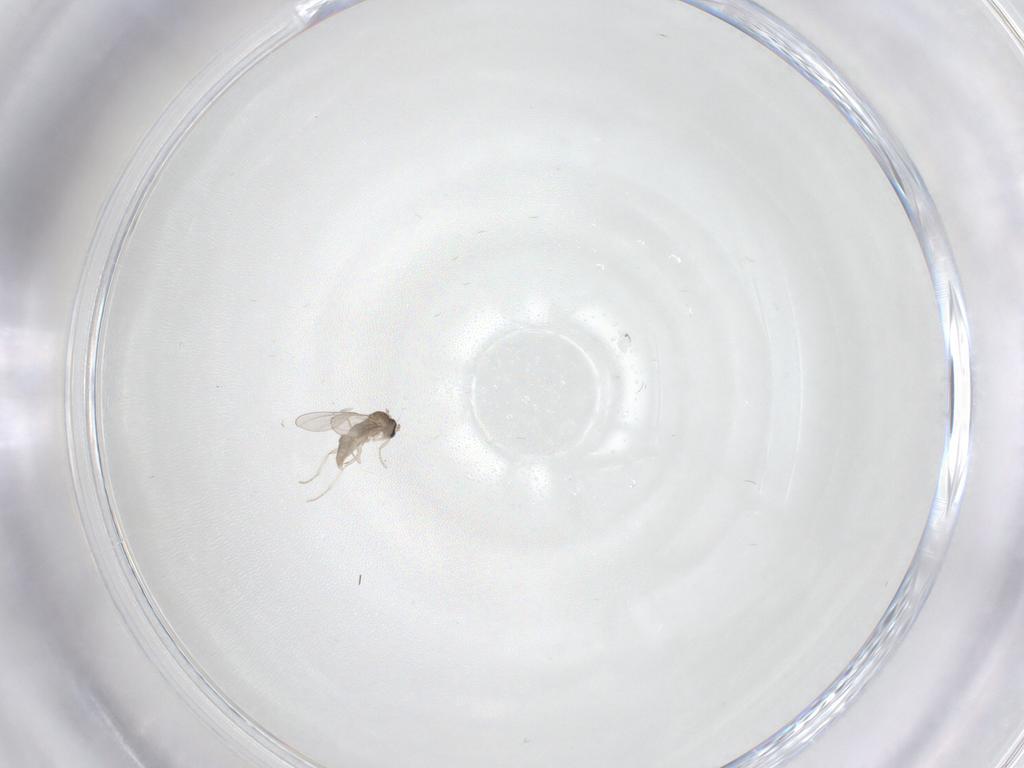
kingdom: Animalia
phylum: Arthropoda
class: Insecta
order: Diptera
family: Cecidomyiidae
